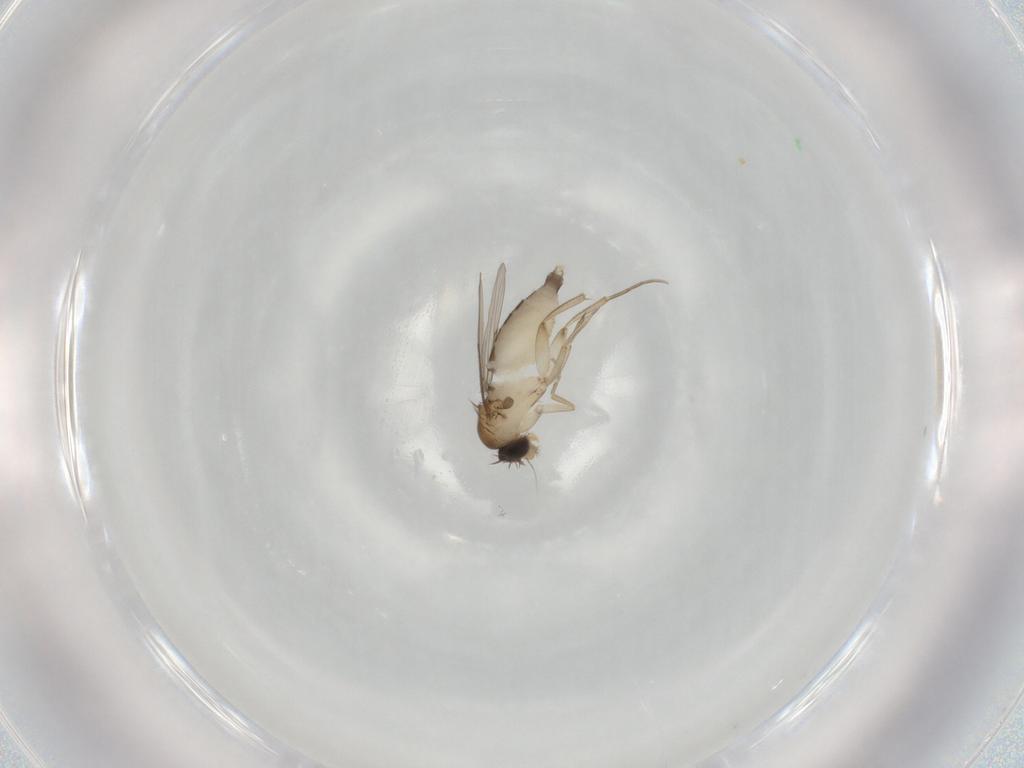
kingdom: Animalia
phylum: Arthropoda
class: Insecta
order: Diptera
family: Phoridae
